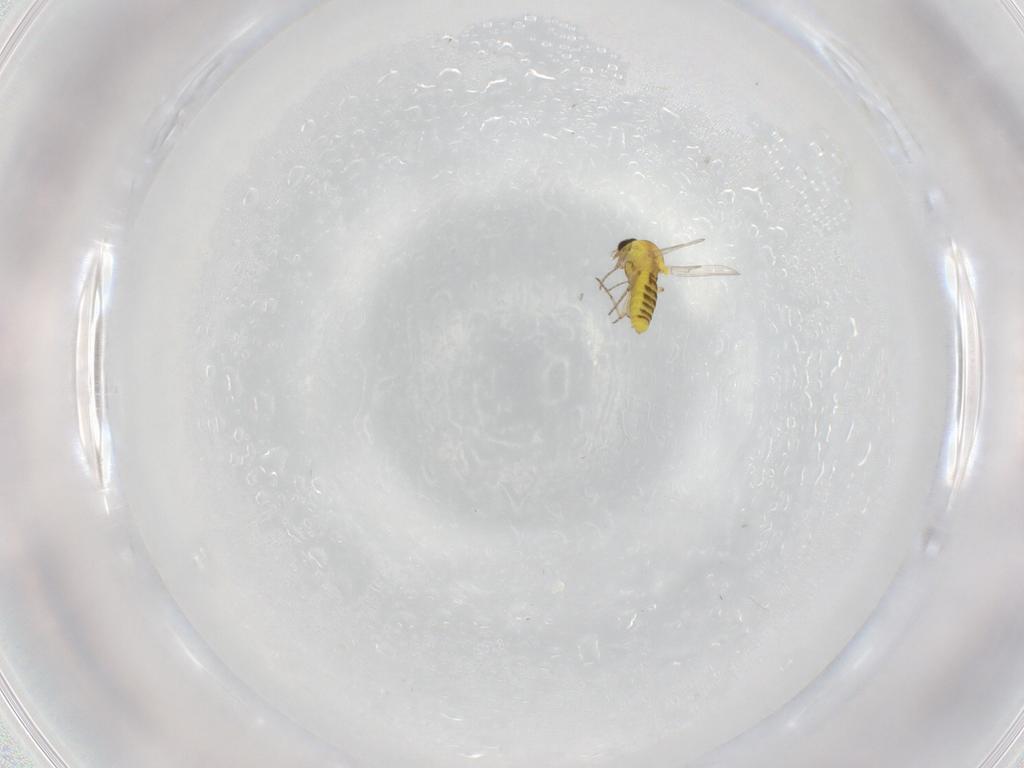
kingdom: Animalia
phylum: Arthropoda
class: Insecta
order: Diptera
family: Ceratopogonidae
